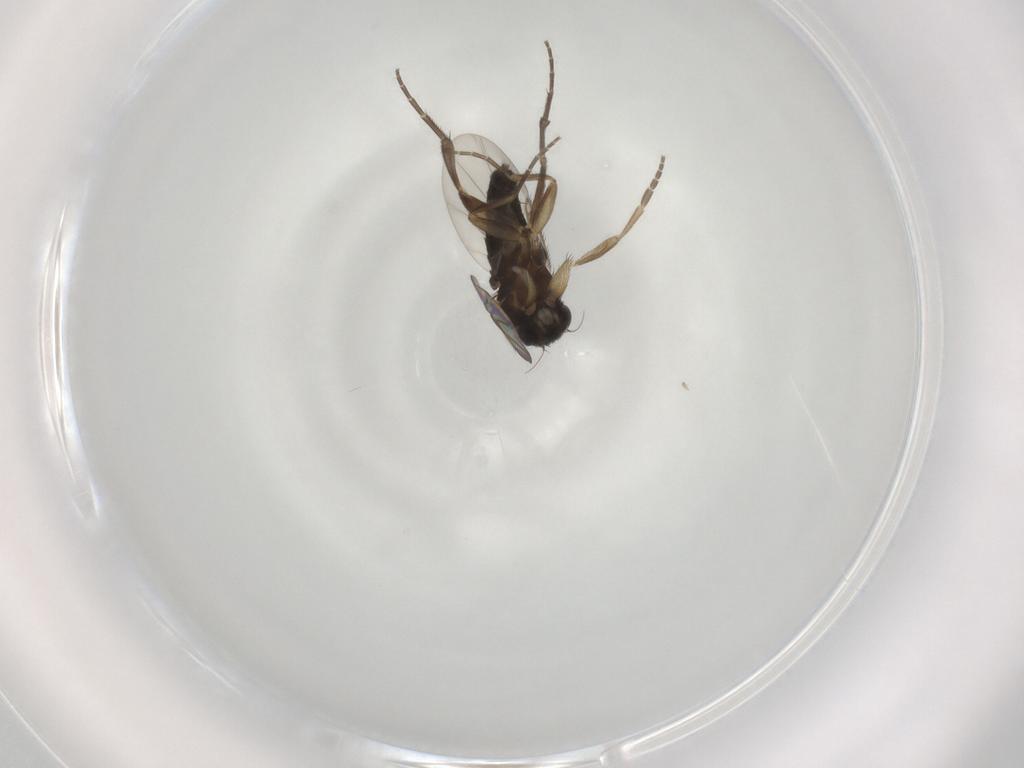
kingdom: Animalia
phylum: Arthropoda
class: Insecta
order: Diptera
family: Phoridae
